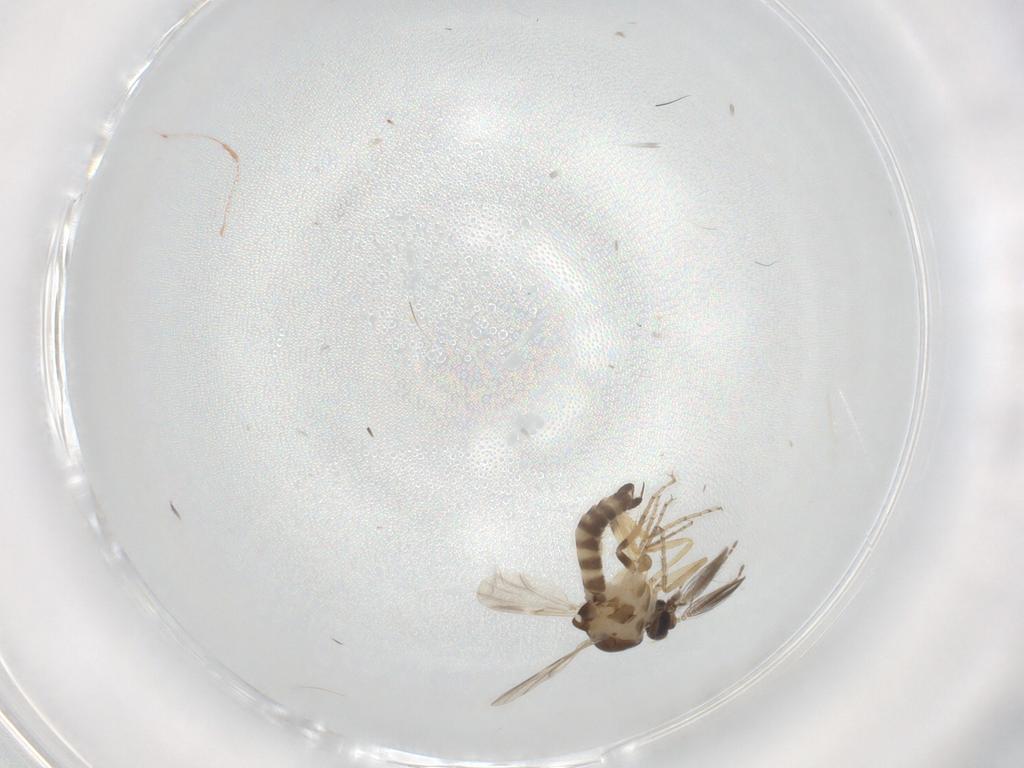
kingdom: Animalia
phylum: Arthropoda
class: Insecta
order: Diptera
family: Ceratopogonidae
